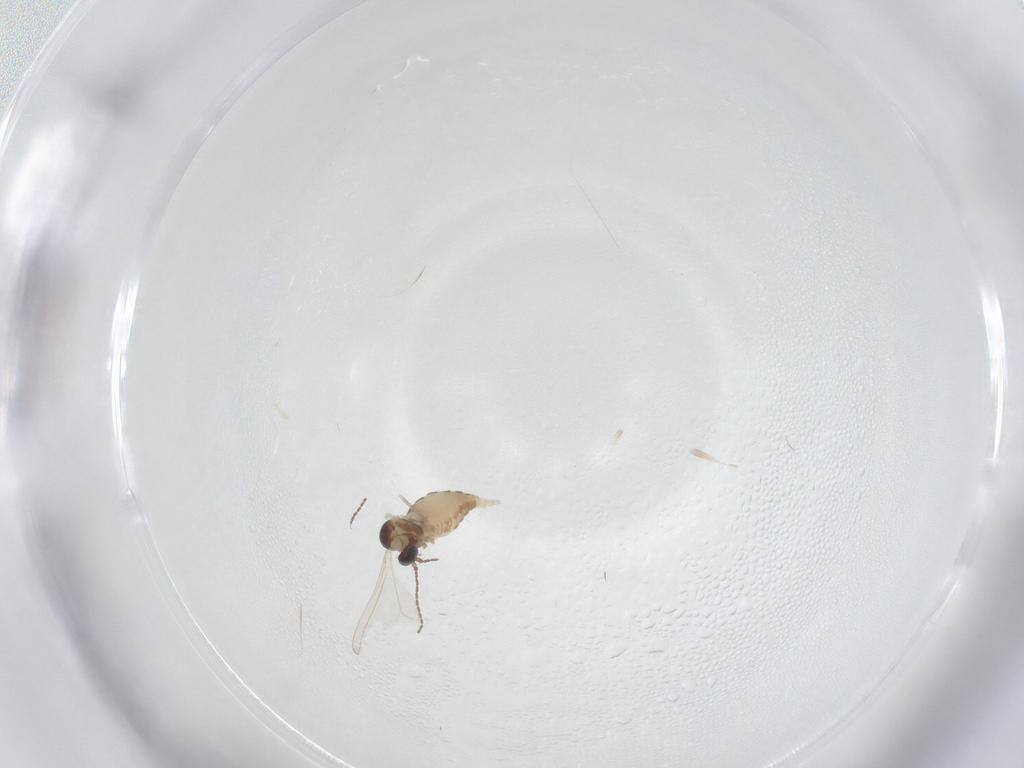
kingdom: Animalia
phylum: Arthropoda
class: Insecta
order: Diptera
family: Cecidomyiidae
